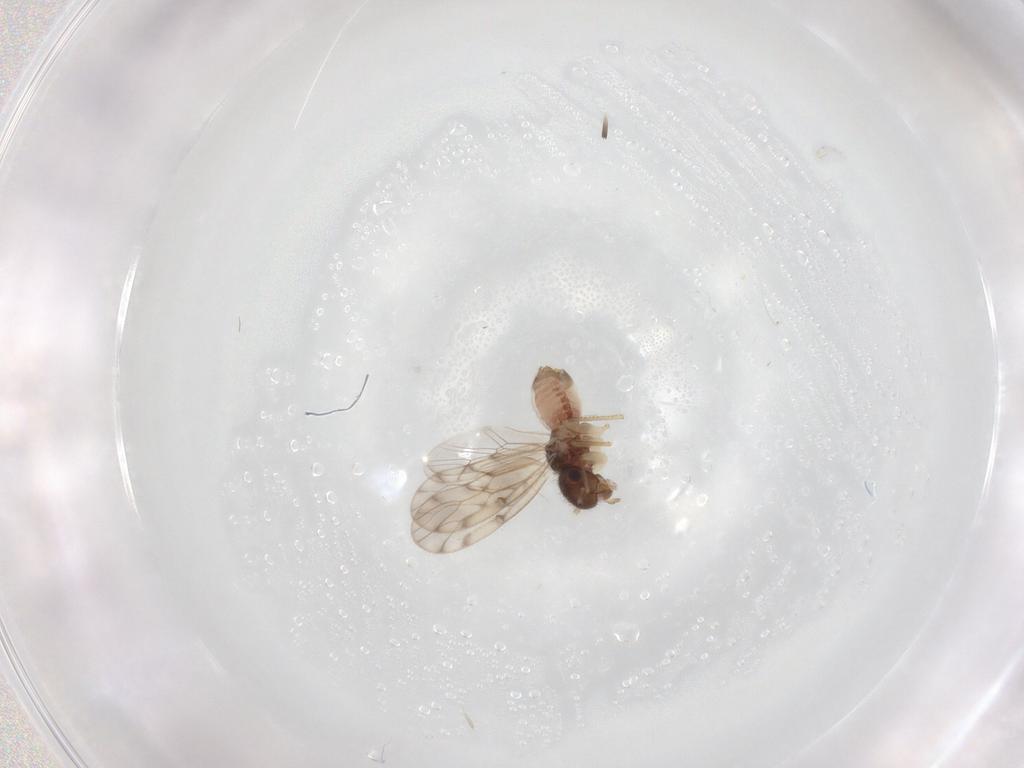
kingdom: Animalia
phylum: Arthropoda
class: Insecta
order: Psocodea
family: Peripsocidae
